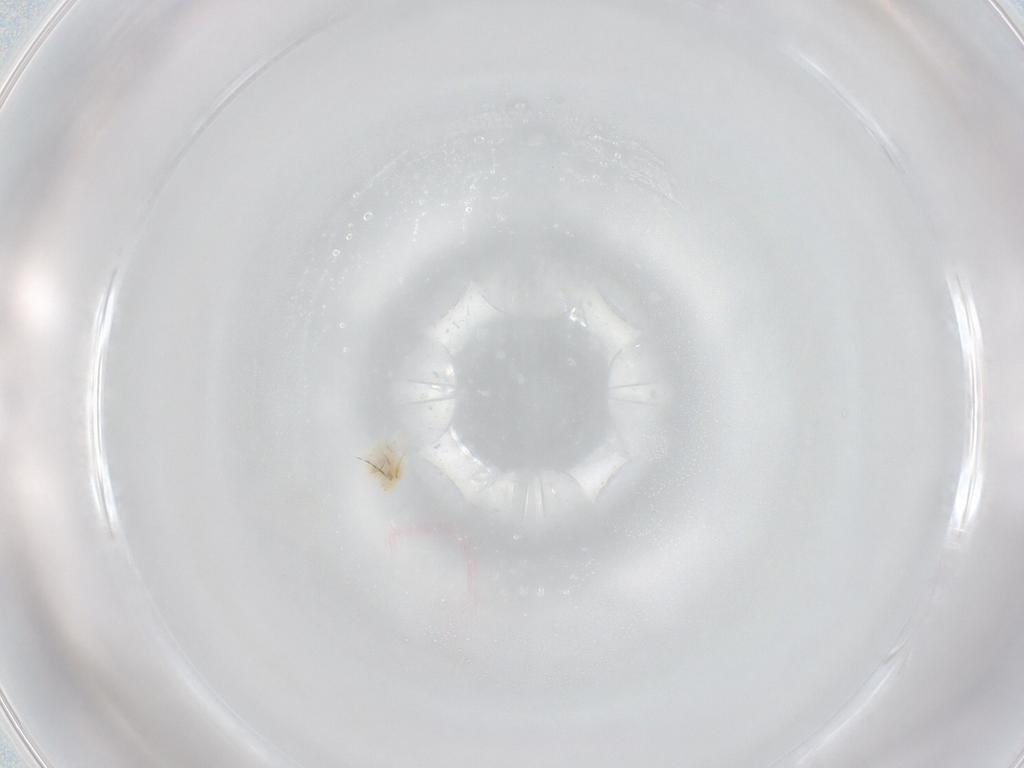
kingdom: Animalia
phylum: Arthropoda
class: Arachnida
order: Trombidiformes
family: Anystidae
